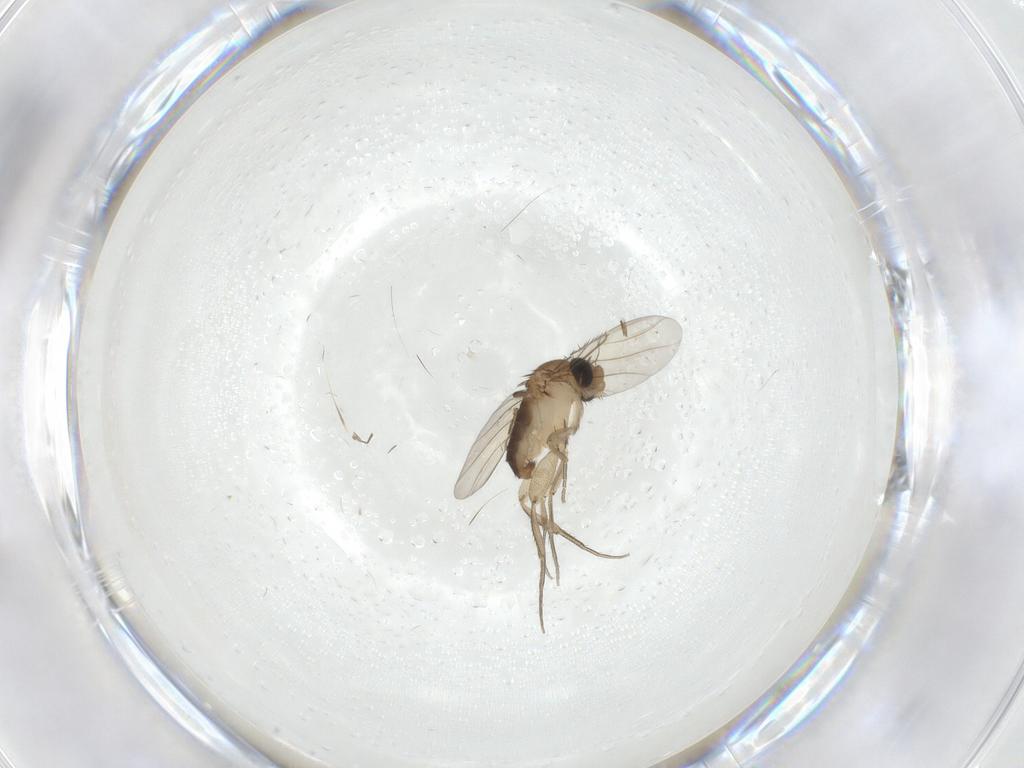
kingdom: Animalia
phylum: Arthropoda
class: Insecta
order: Diptera
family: Phoridae
